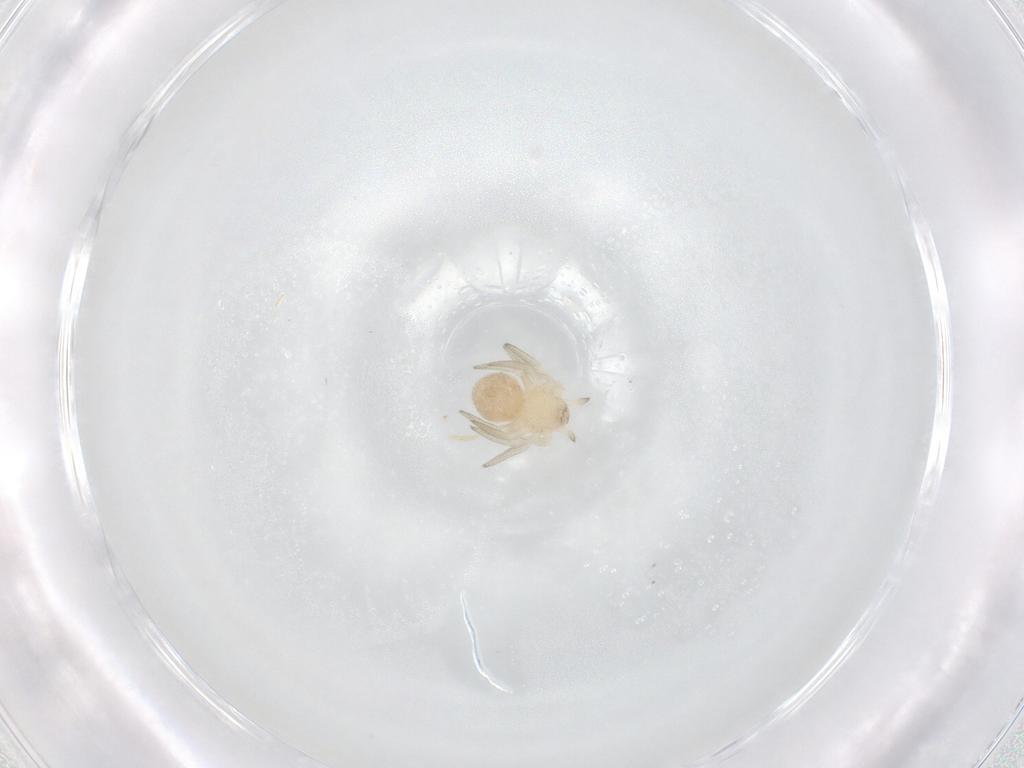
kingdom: Animalia
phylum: Arthropoda
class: Arachnida
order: Araneae
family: Theridiidae
